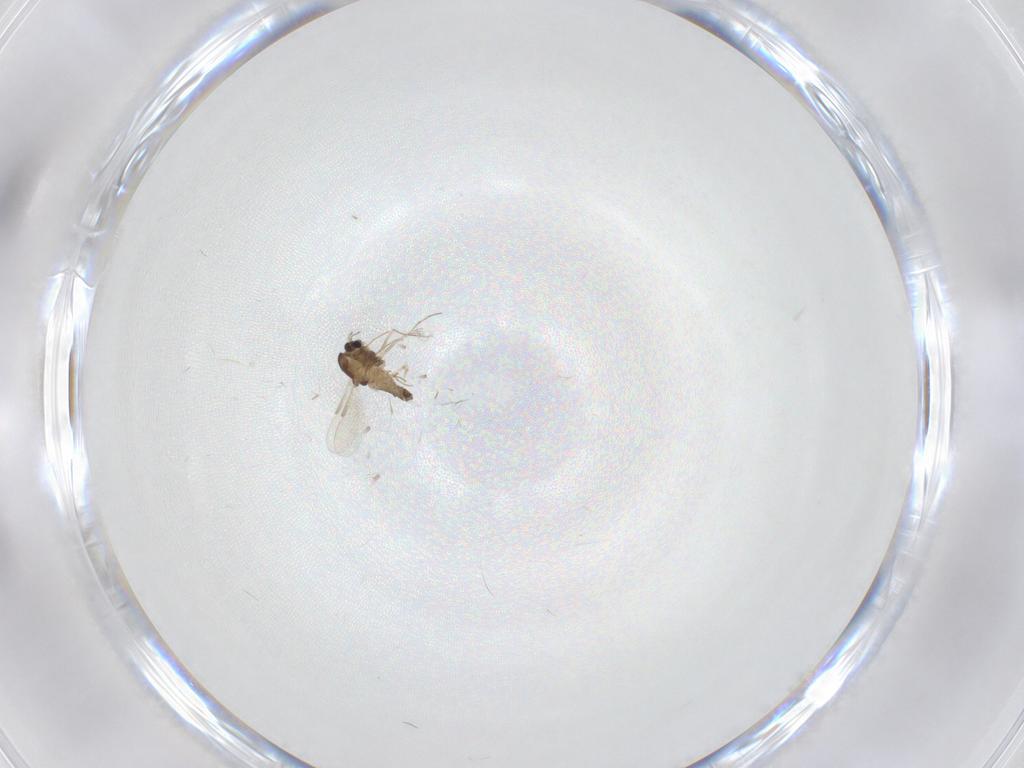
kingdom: Animalia
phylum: Arthropoda
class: Insecta
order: Diptera
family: Chironomidae
